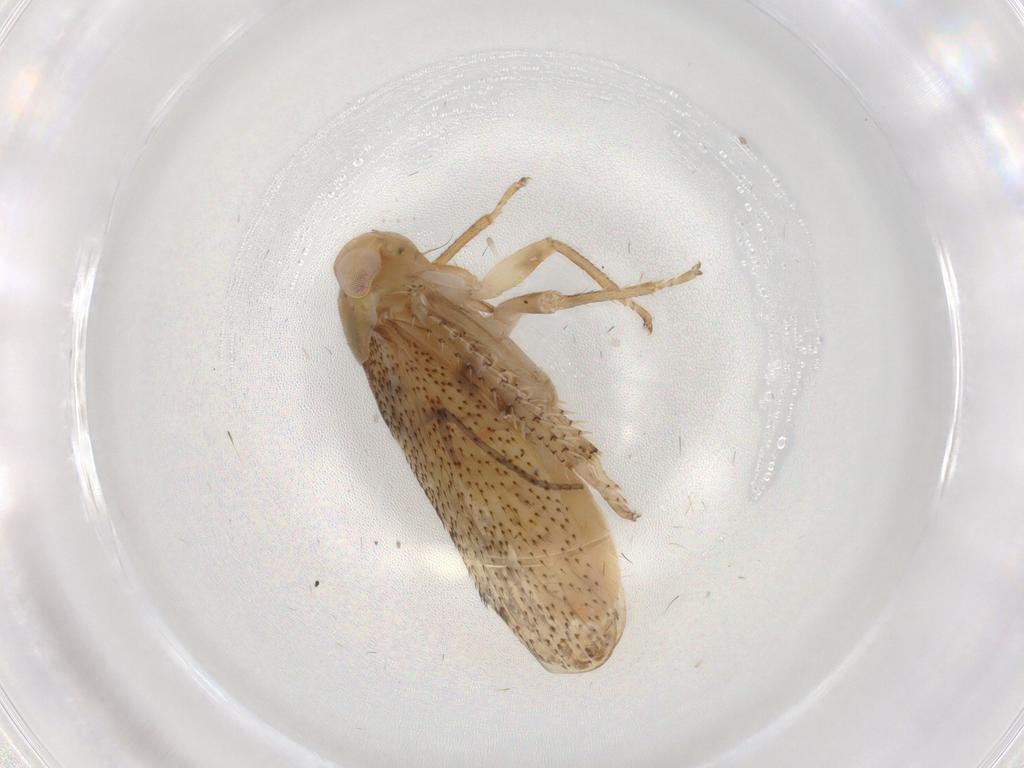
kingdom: Animalia
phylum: Arthropoda
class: Insecta
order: Hemiptera
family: Cicadellidae
